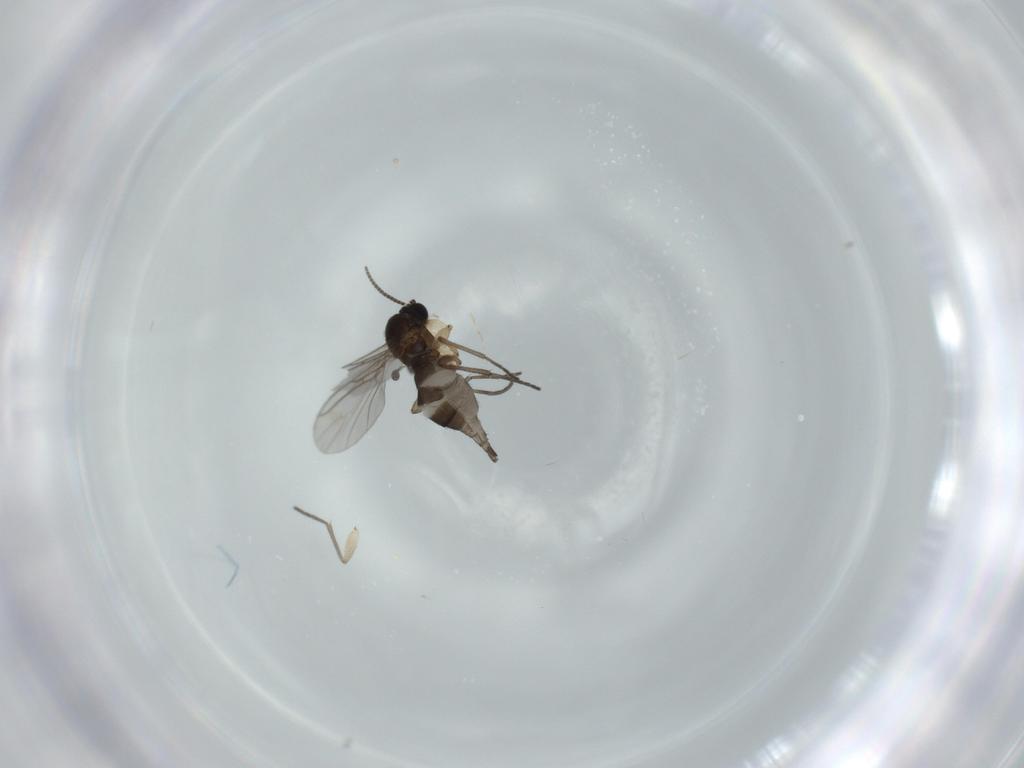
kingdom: Animalia
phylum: Arthropoda
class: Insecta
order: Diptera
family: Sciaridae
